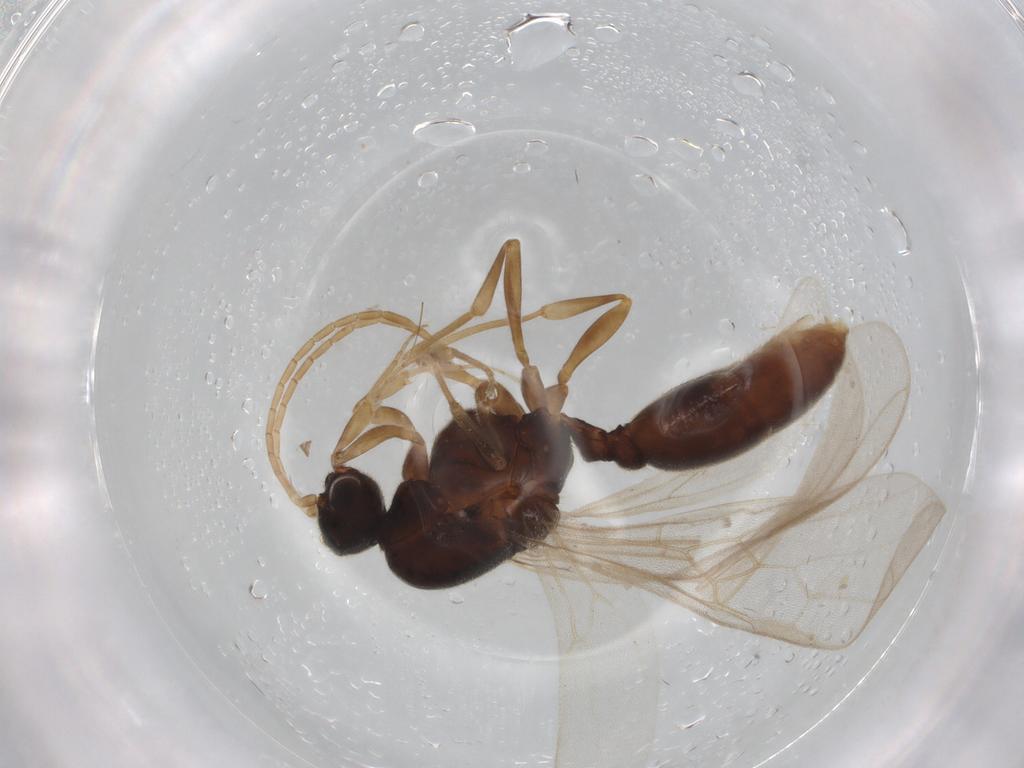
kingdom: Animalia
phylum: Arthropoda
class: Insecta
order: Hymenoptera
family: Formicidae
